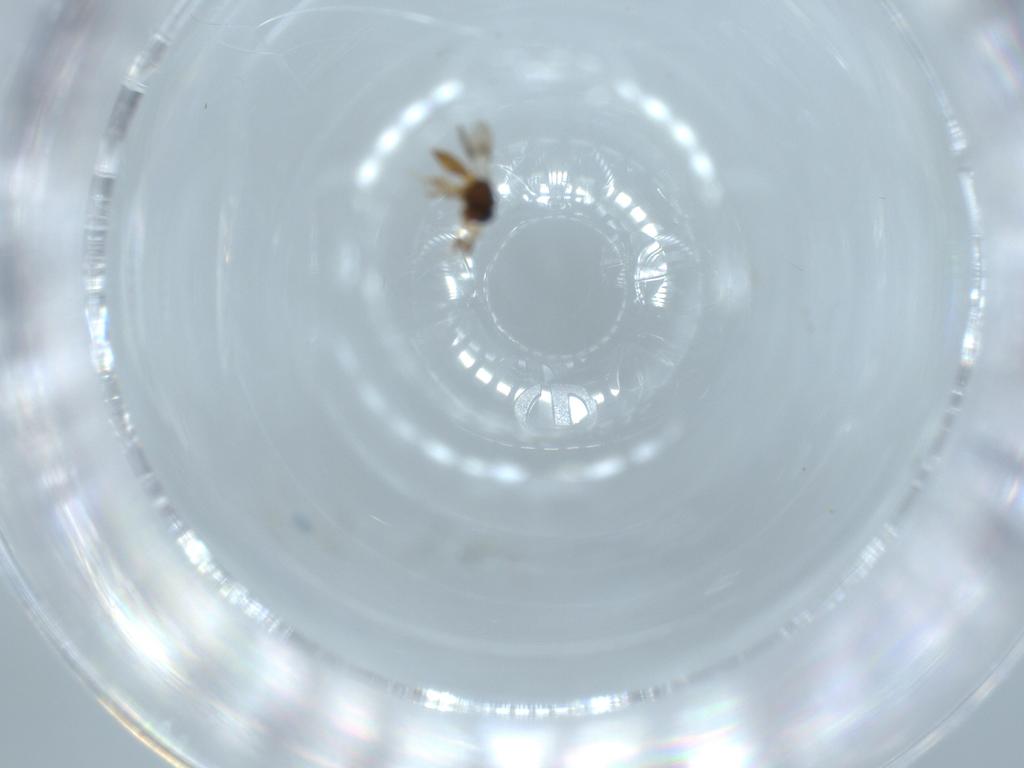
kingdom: Animalia
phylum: Arthropoda
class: Insecta
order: Hymenoptera
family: Scelionidae
